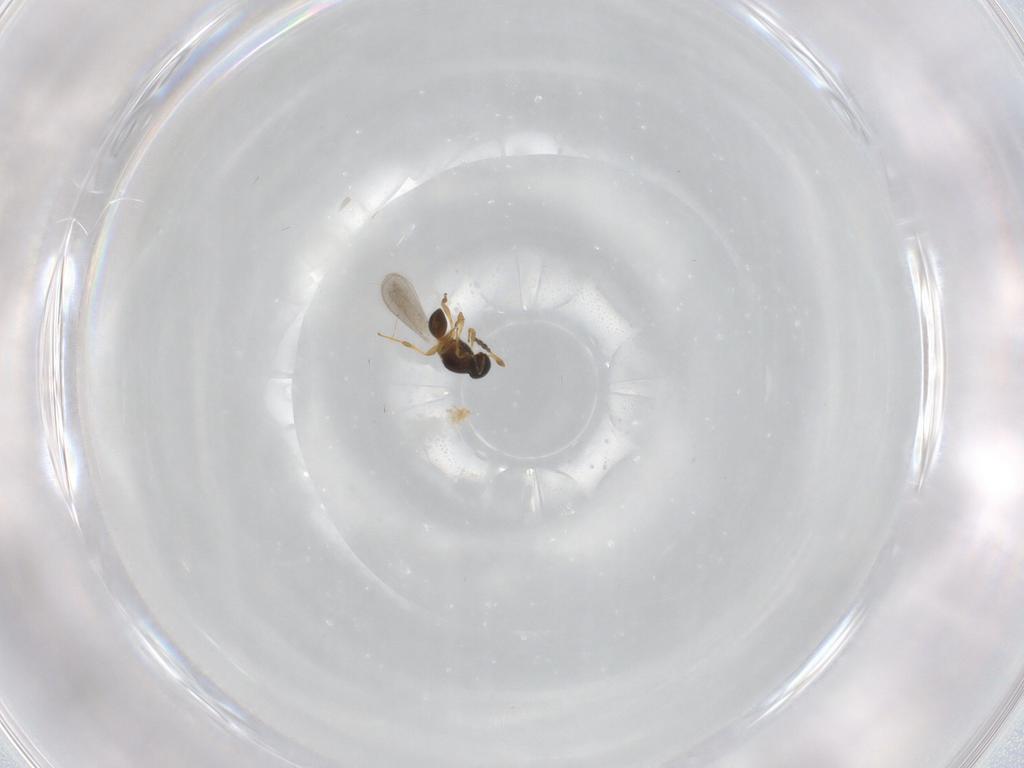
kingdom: Animalia
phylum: Arthropoda
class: Insecta
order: Hymenoptera
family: Platygastridae
